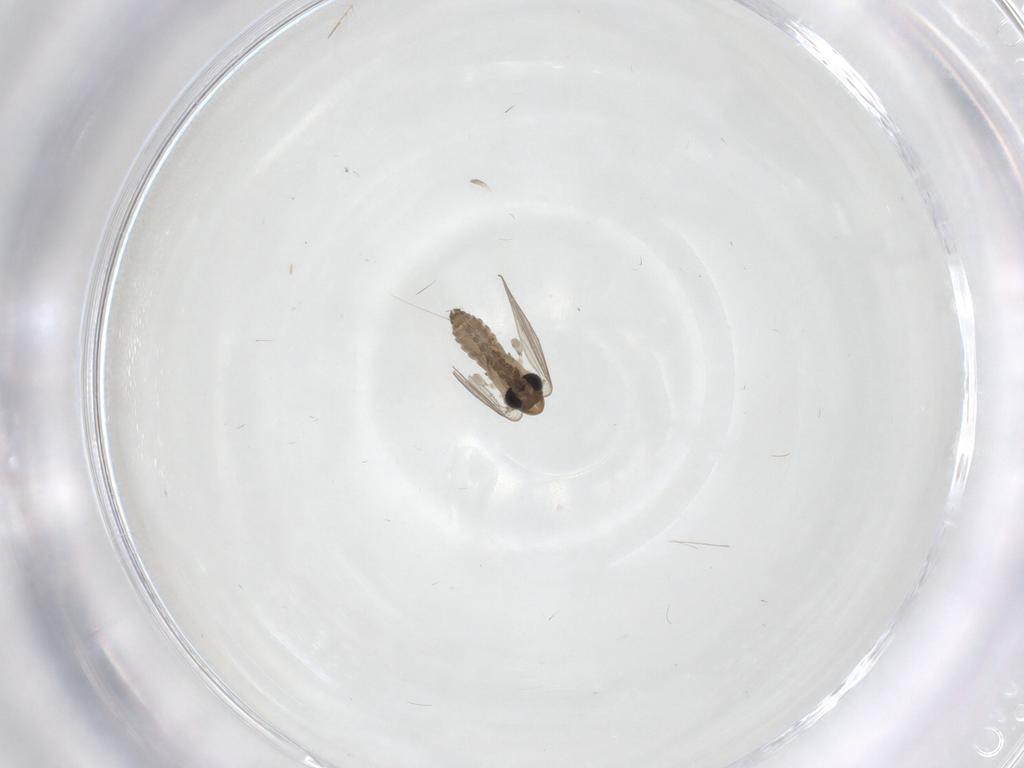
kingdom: Animalia
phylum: Arthropoda
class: Insecta
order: Diptera
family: Chironomidae
